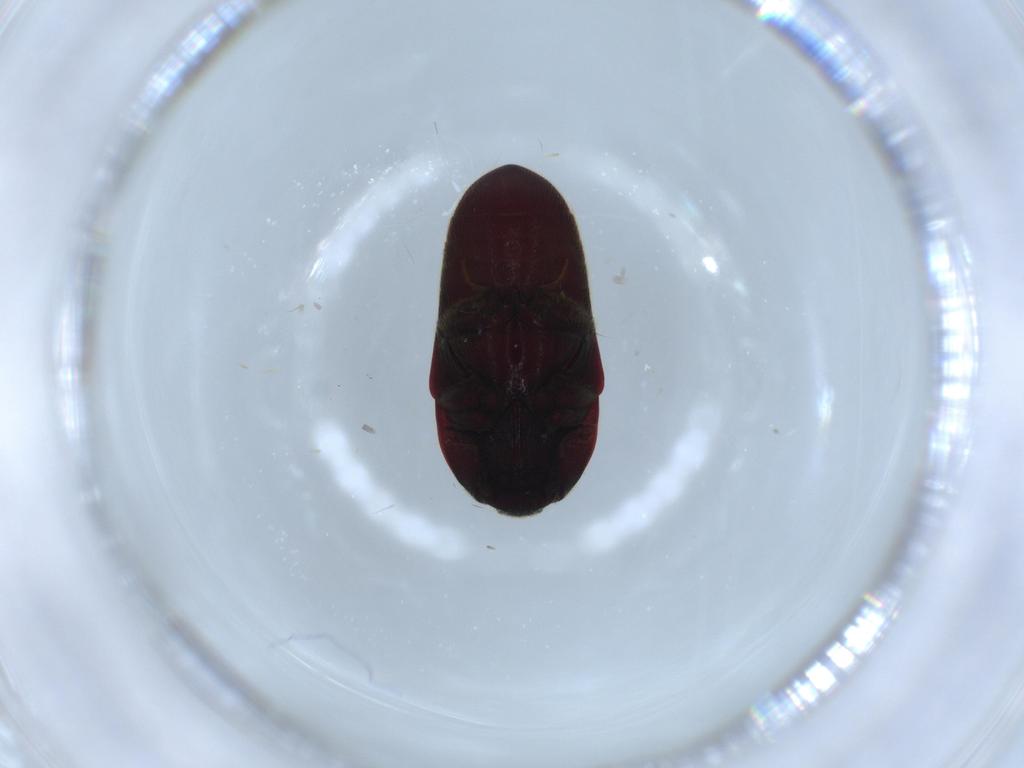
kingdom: Animalia
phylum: Arthropoda
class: Insecta
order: Coleoptera
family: Throscidae
